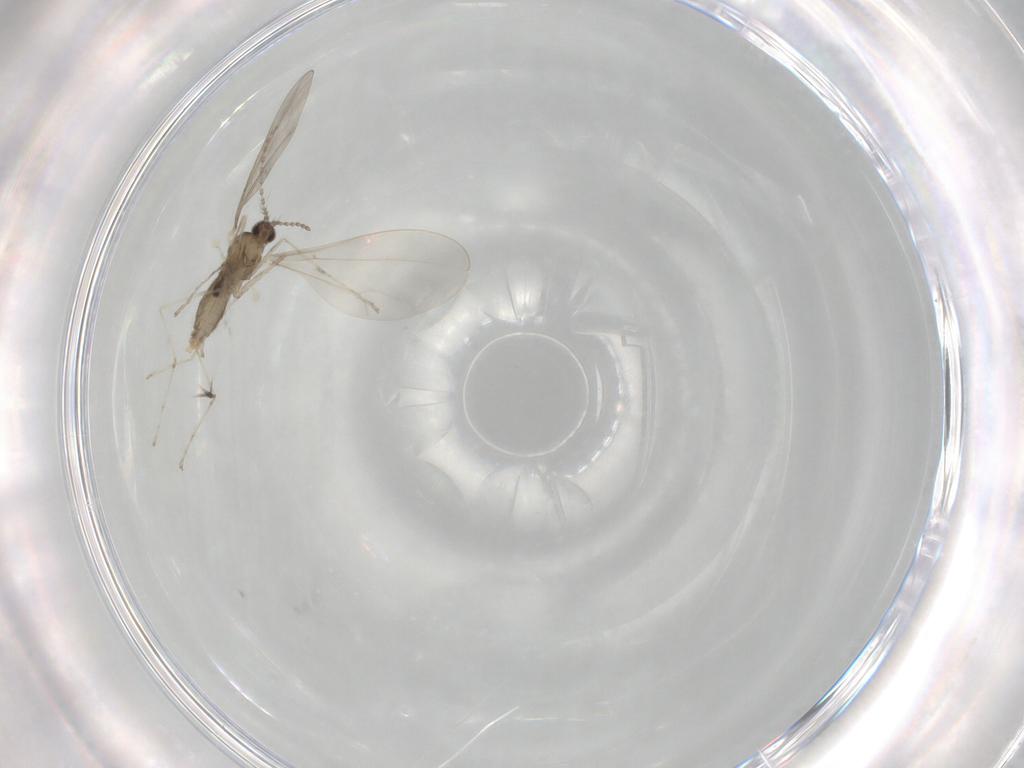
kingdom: Animalia
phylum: Arthropoda
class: Insecta
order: Diptera
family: Cecidomyiidae
